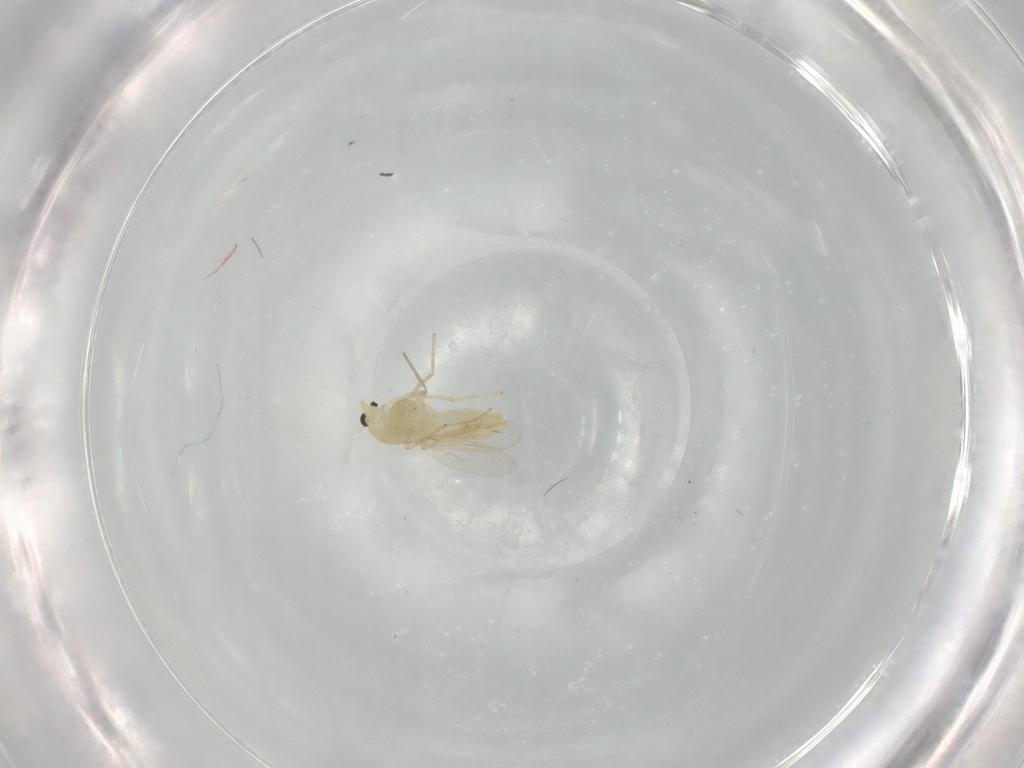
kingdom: Animalia
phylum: Arthropoda
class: Insecta
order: Diptera
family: Chironomidae
